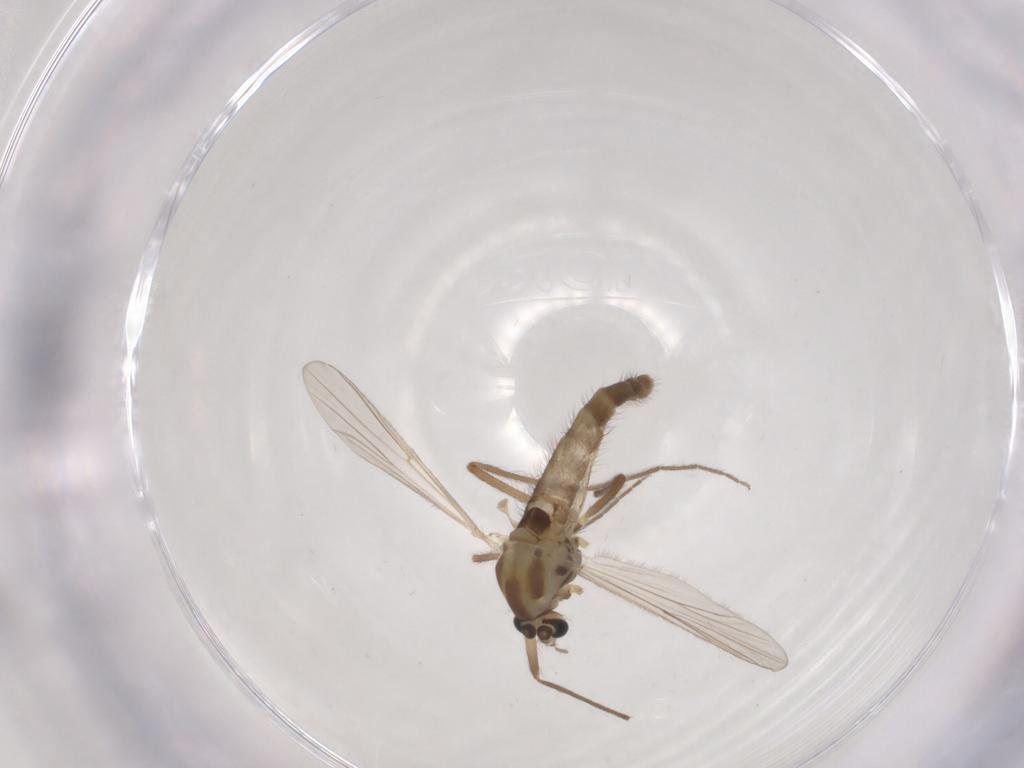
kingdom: Animalia
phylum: Arthropoda
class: Insecta
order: Diptera
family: Chironomidae
